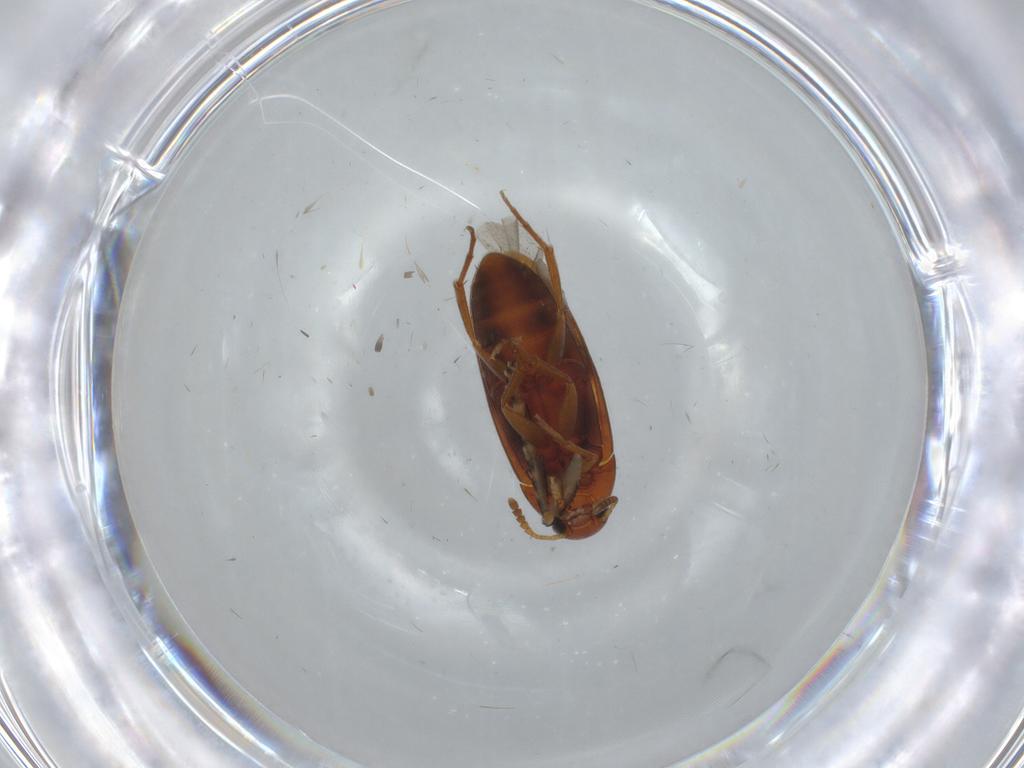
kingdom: Animalia
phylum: Arthropoda
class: Insecta
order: Coleoptera
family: Scraptiidae
